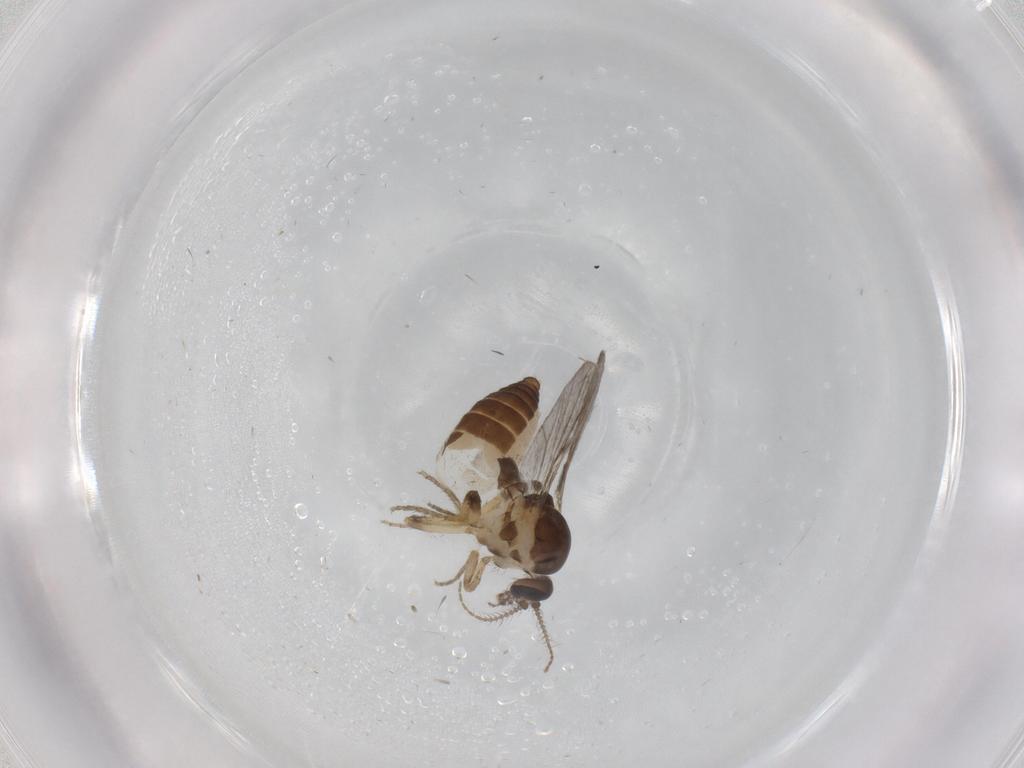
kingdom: Animalia
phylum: Arthropoda
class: Insecta
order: Diptera
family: Ceratopogonidae
